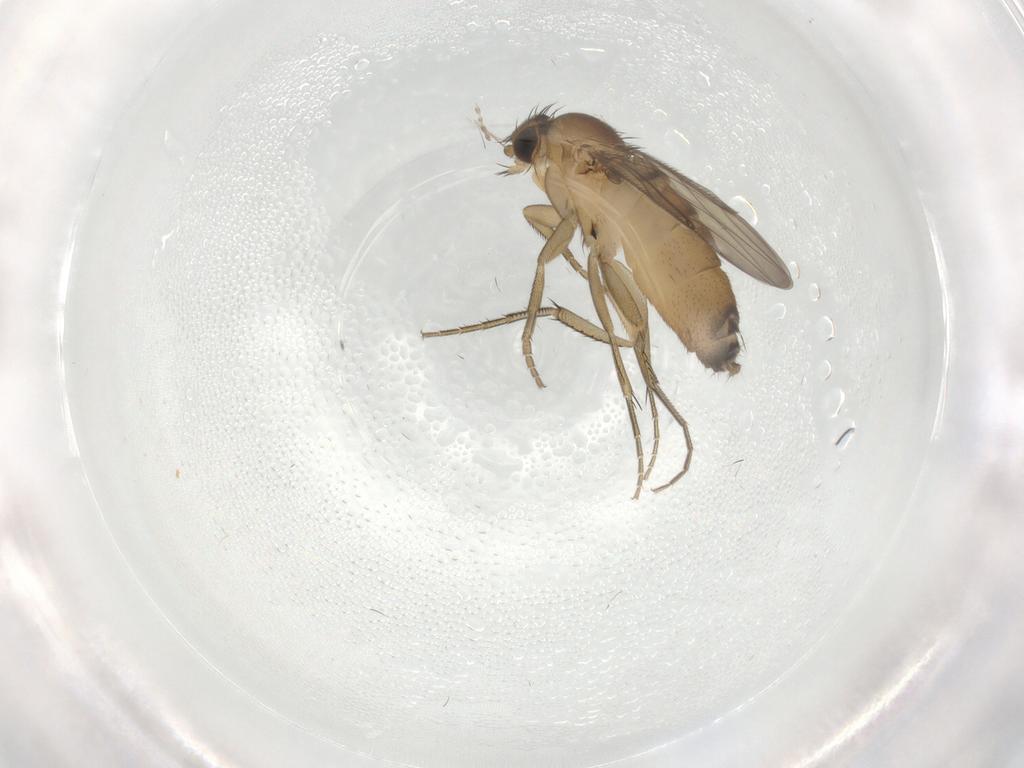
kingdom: Animalia
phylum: Arthropoda
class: Insecta
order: Diptera
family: Phoridae
